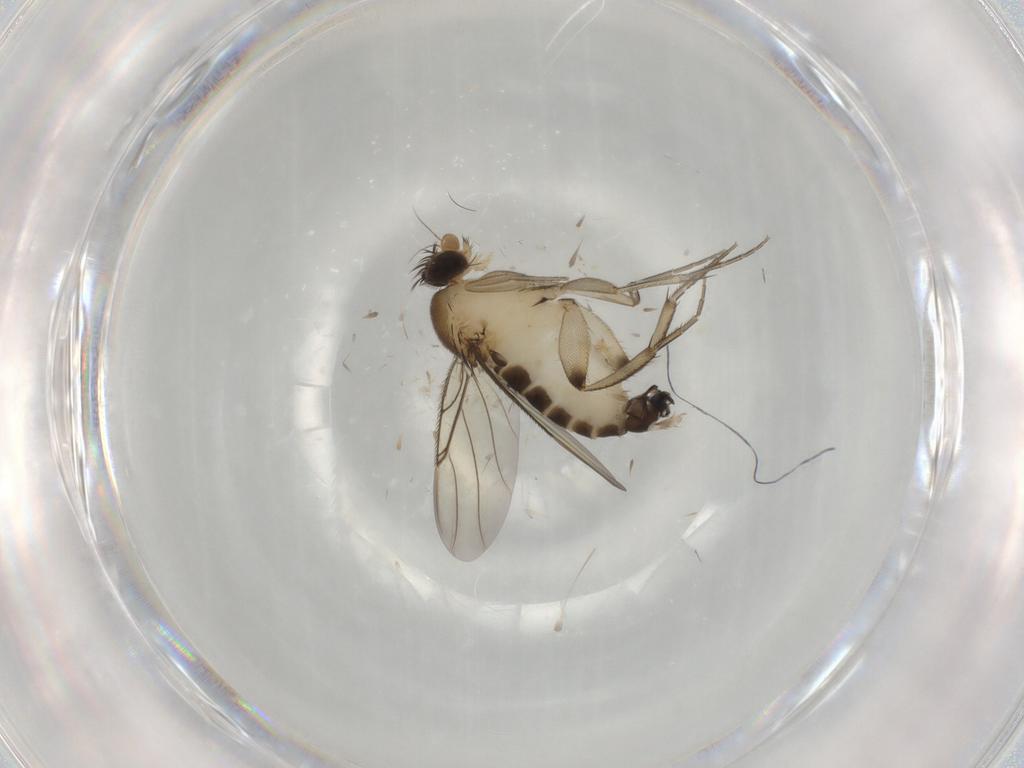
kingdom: Animalia
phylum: Arthropoda
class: Insecta
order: Diptera
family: Phoridae
